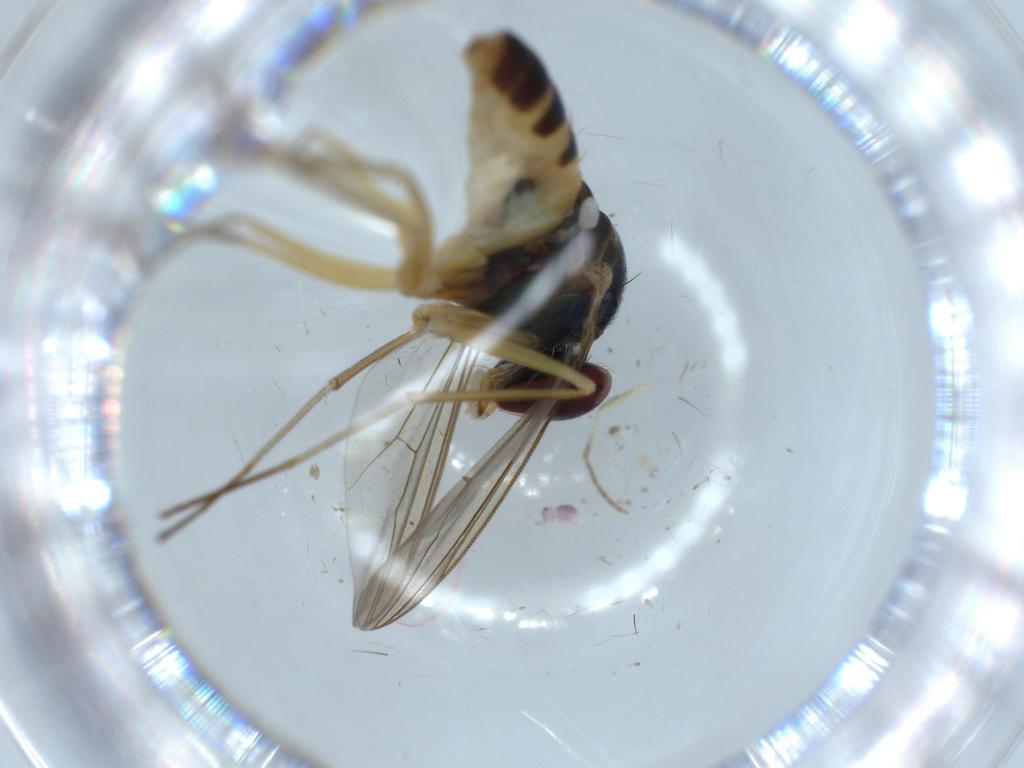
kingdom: Animalia
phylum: Arthropoda
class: Insecta
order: Diptera
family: Dolichopodidae
